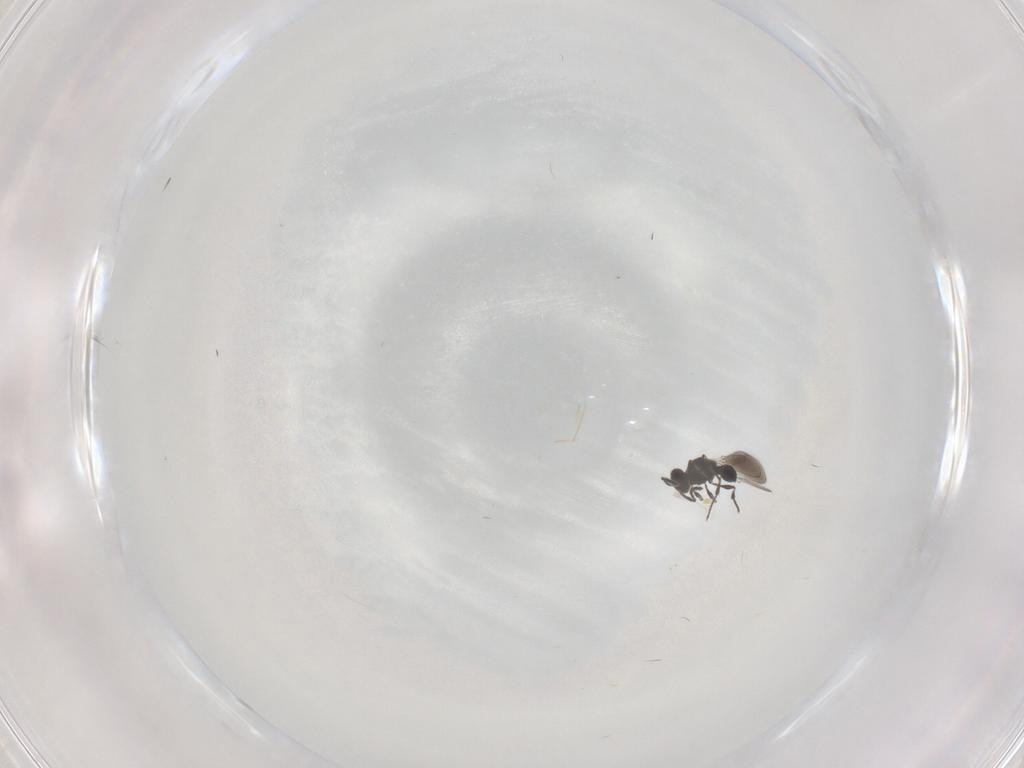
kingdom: Animalia
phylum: Arthropoda
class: Insecta
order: Hymenoptera
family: Platygastridae
